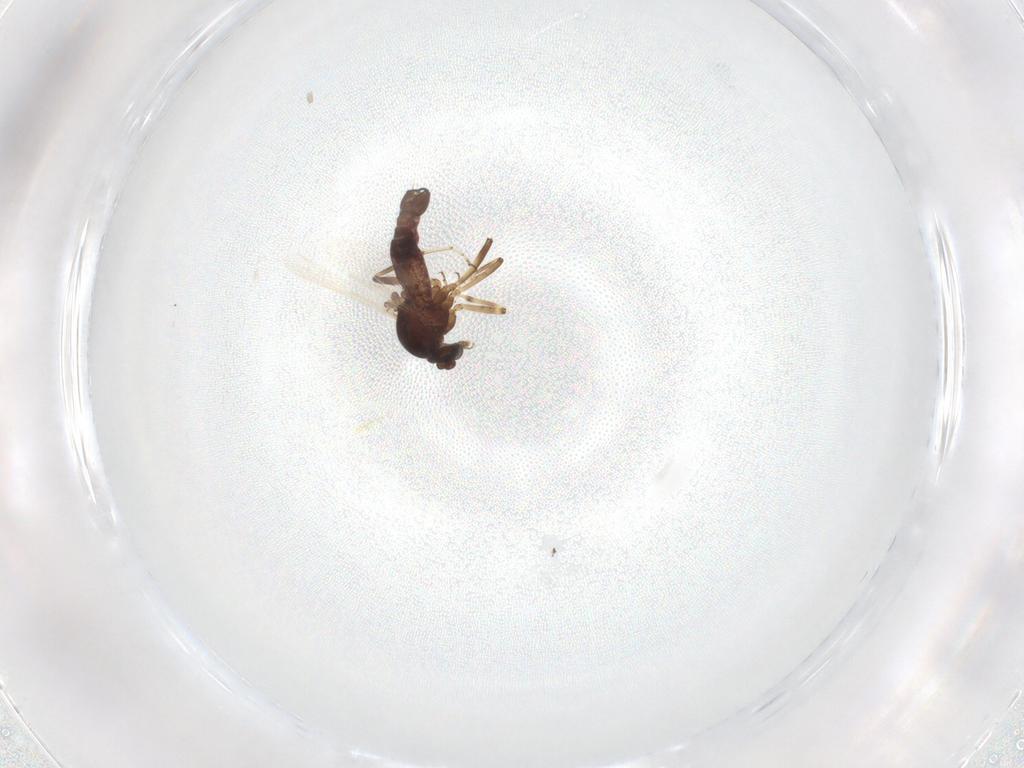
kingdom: Animalia
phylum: Arthropoda
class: Insecta
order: Diptera
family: Ceratopogonidae
